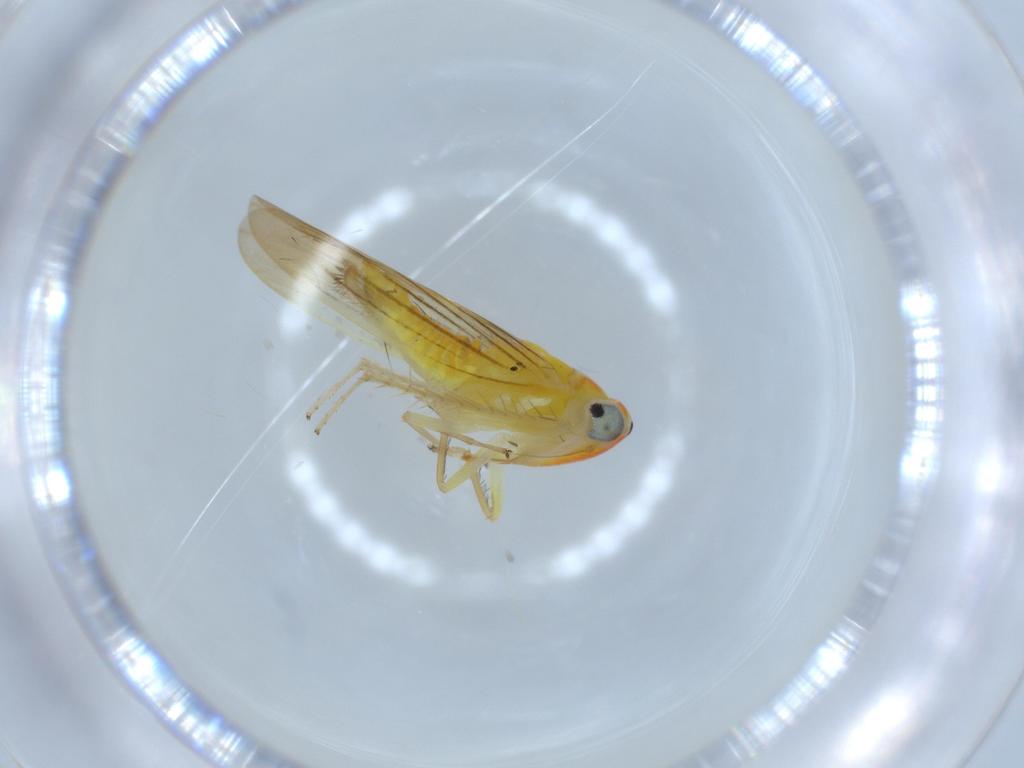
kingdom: Animalia
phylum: Arthropoda
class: Insecta
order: Hemiptera
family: Cicadellidae
